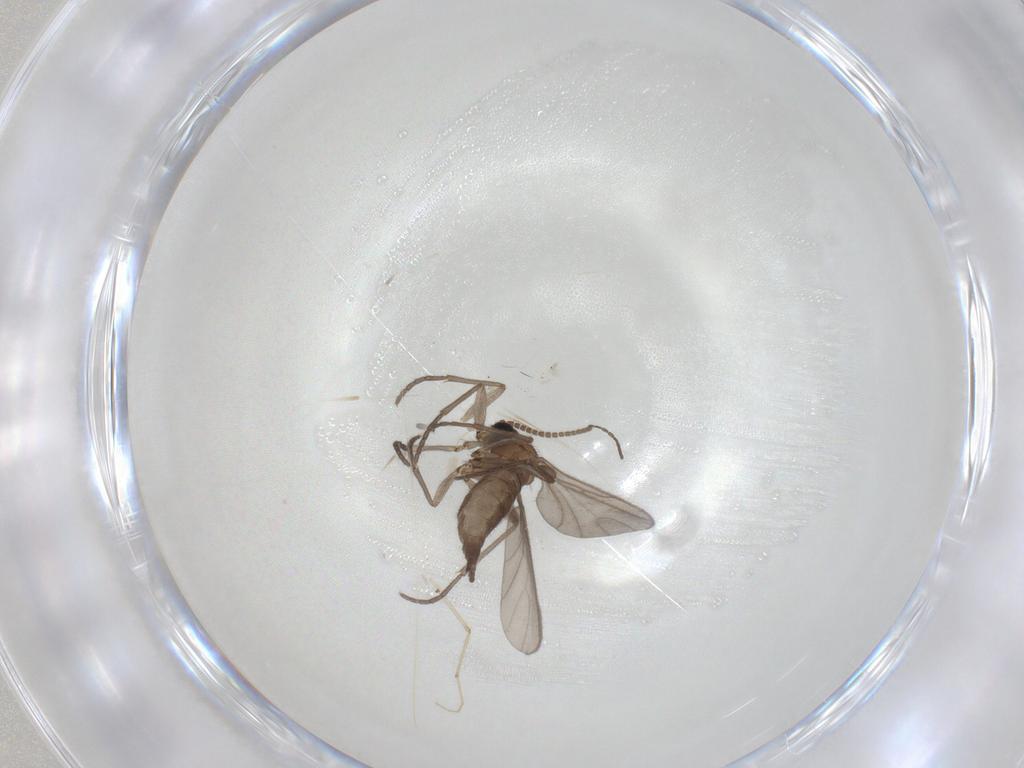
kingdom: Animalia
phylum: Arthropoda
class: Insecta
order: Diptera
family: Sciaridae
